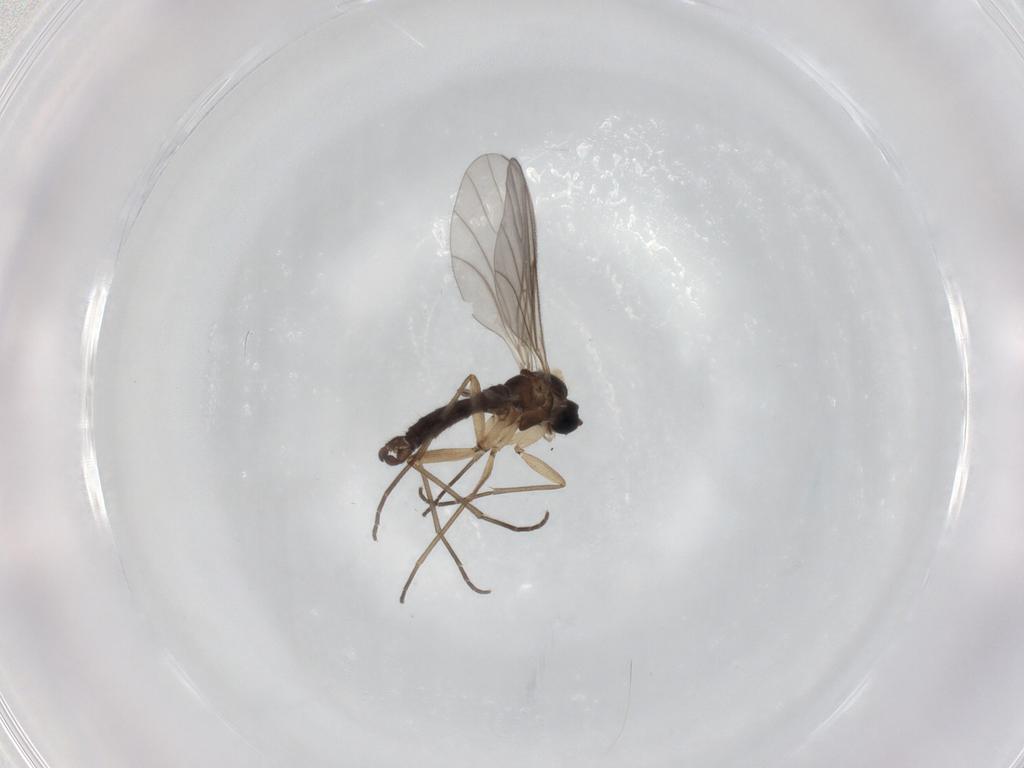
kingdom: Animalia
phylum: Arthropoda
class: Insecta
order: Diptera
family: Sciaridae
